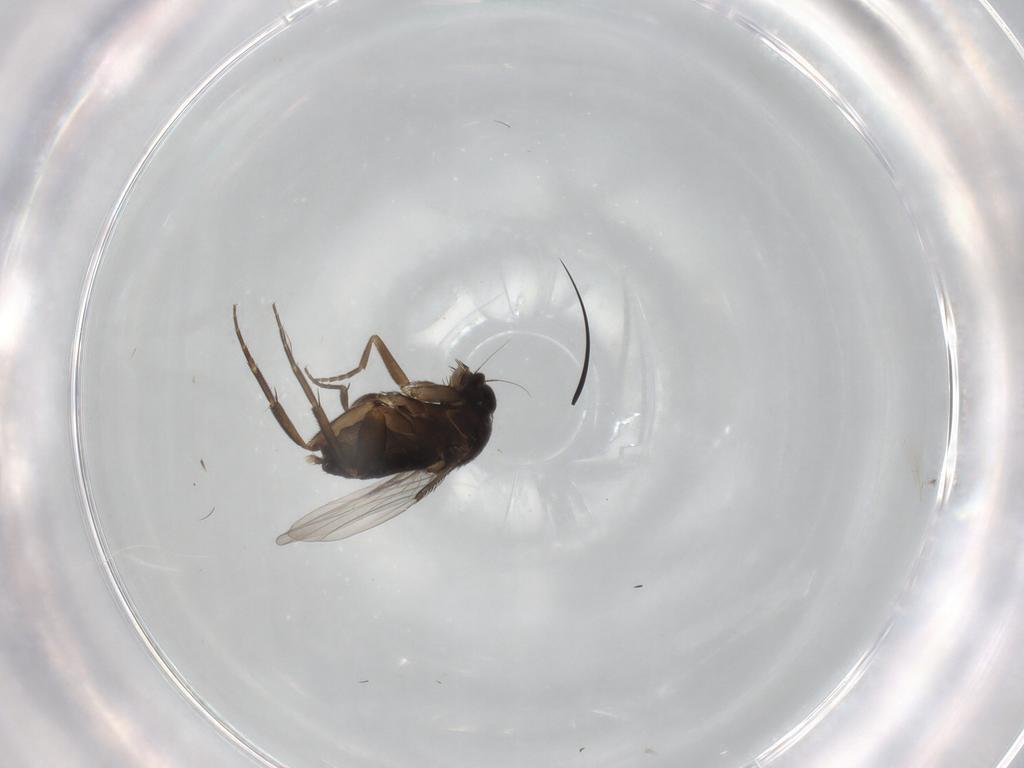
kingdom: Animalia
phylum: Arthropoda
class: Insecta
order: Diptera
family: Phoridae
